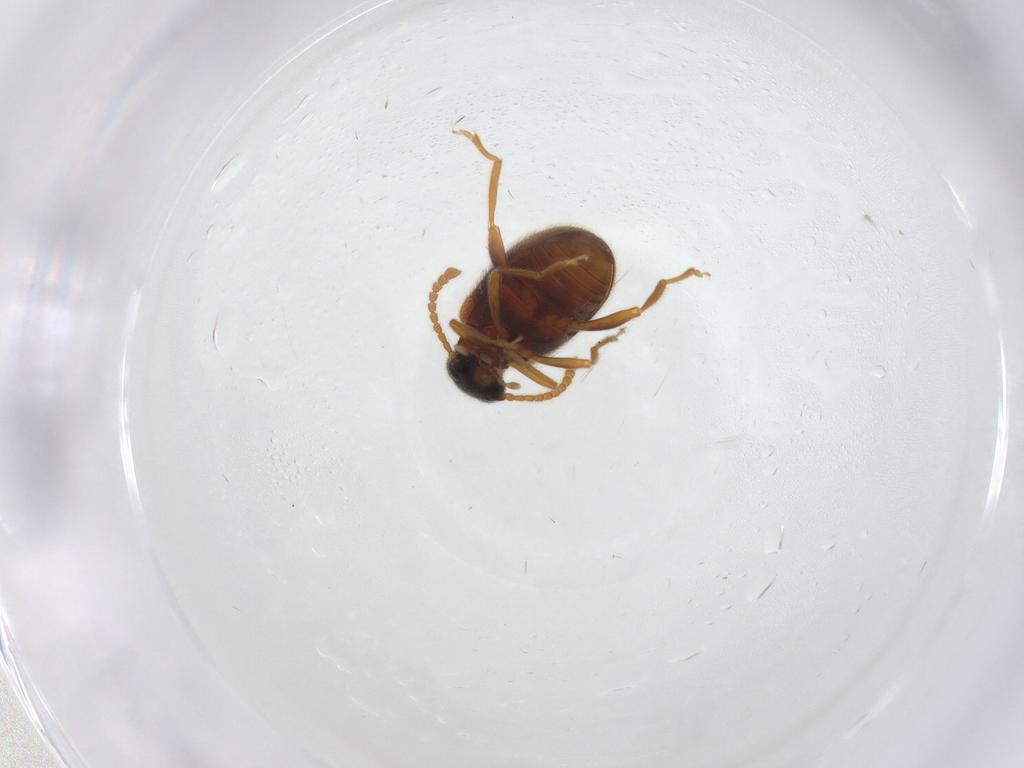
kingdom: Animalia
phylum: Arthropoda
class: Insecta
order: Coleoptera
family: Aderidae
